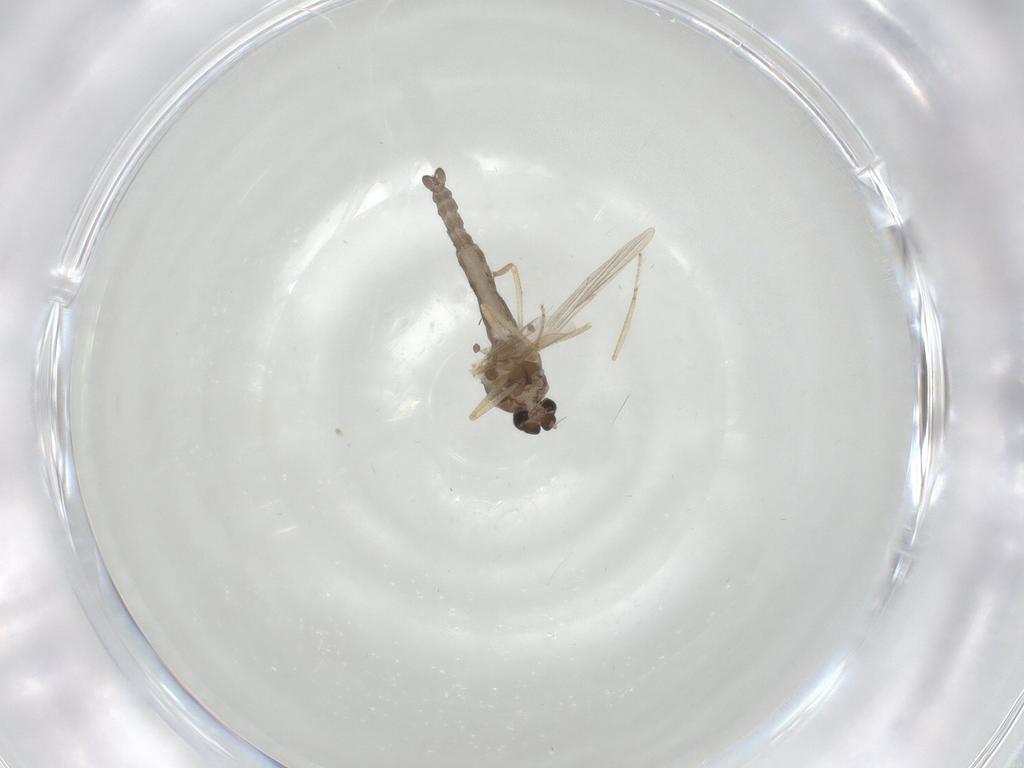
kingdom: Animalia
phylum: Arthropoda
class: Insecta
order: Diptera
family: Ceratopogonidae
